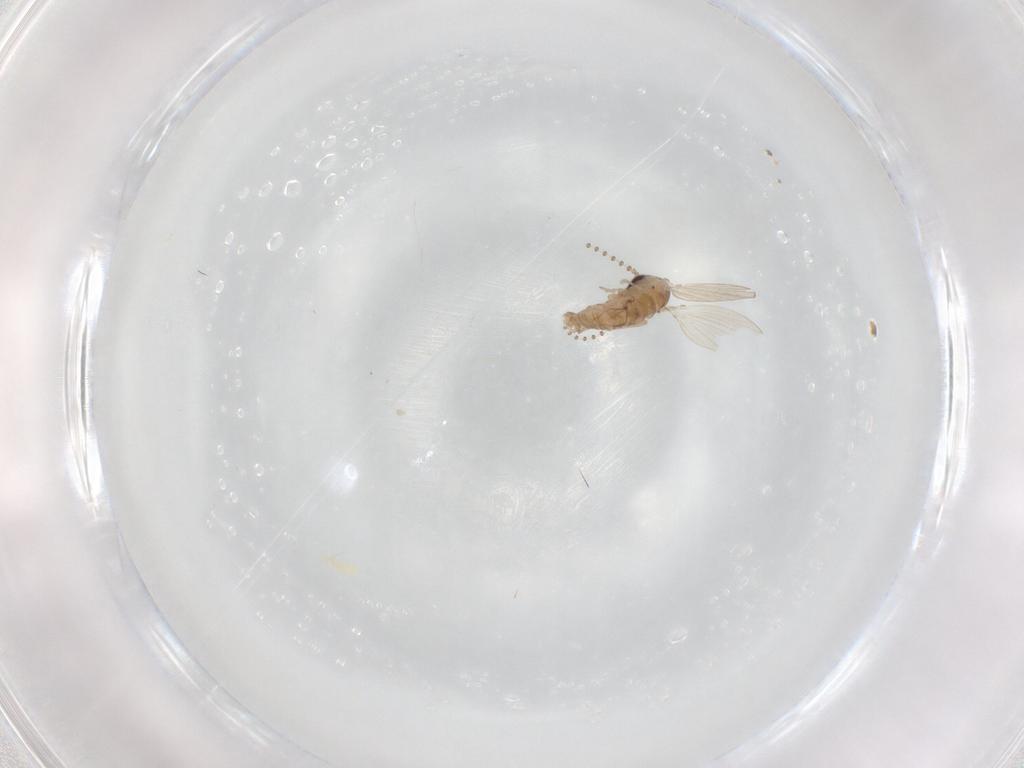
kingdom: Animalia
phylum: Arthropoda
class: Insecta
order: Diptera
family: Psychodidae
